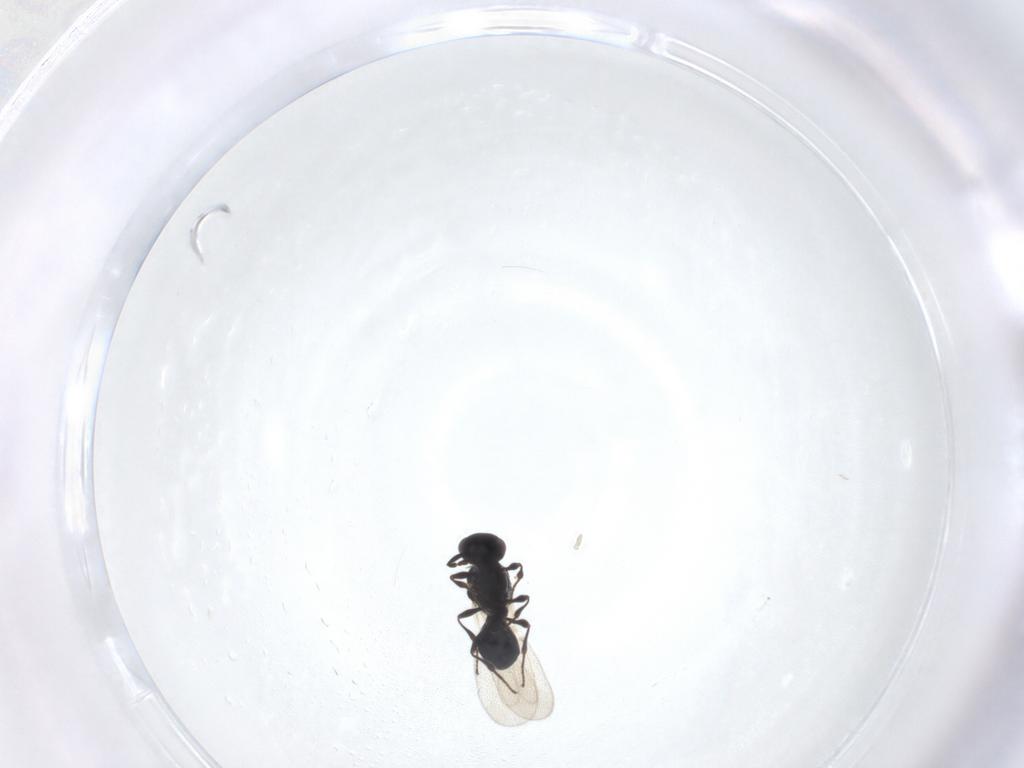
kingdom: Animalia
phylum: Arthropoda
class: Insecta
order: Hymenoptera
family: Platygastridae
